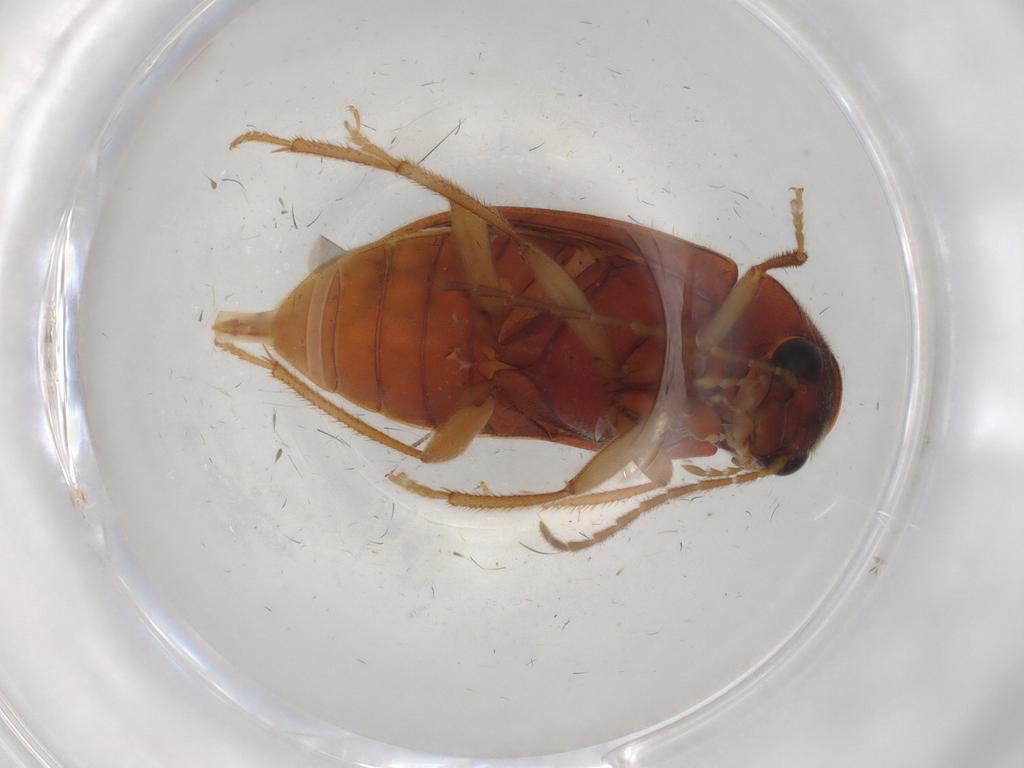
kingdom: Animalia
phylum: Arthropoda
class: Insecta
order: Coleoptera
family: Ptilodactylidae
